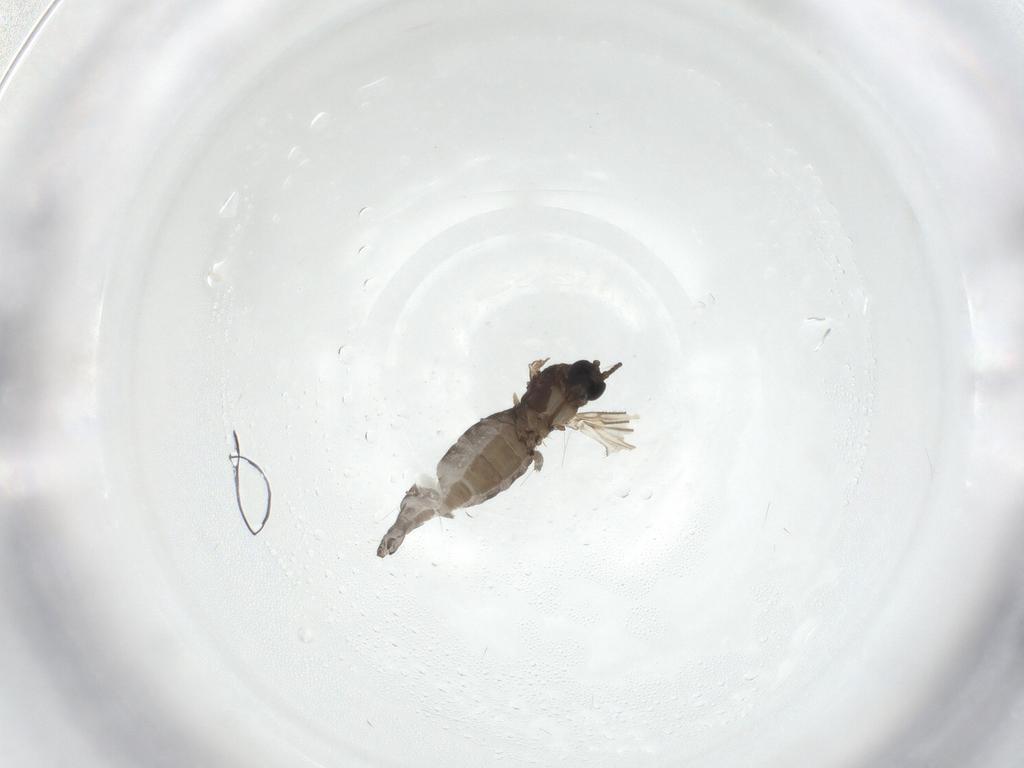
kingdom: Animalia
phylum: Arthropoda
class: Insecta
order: Diptera
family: Sciaridae
